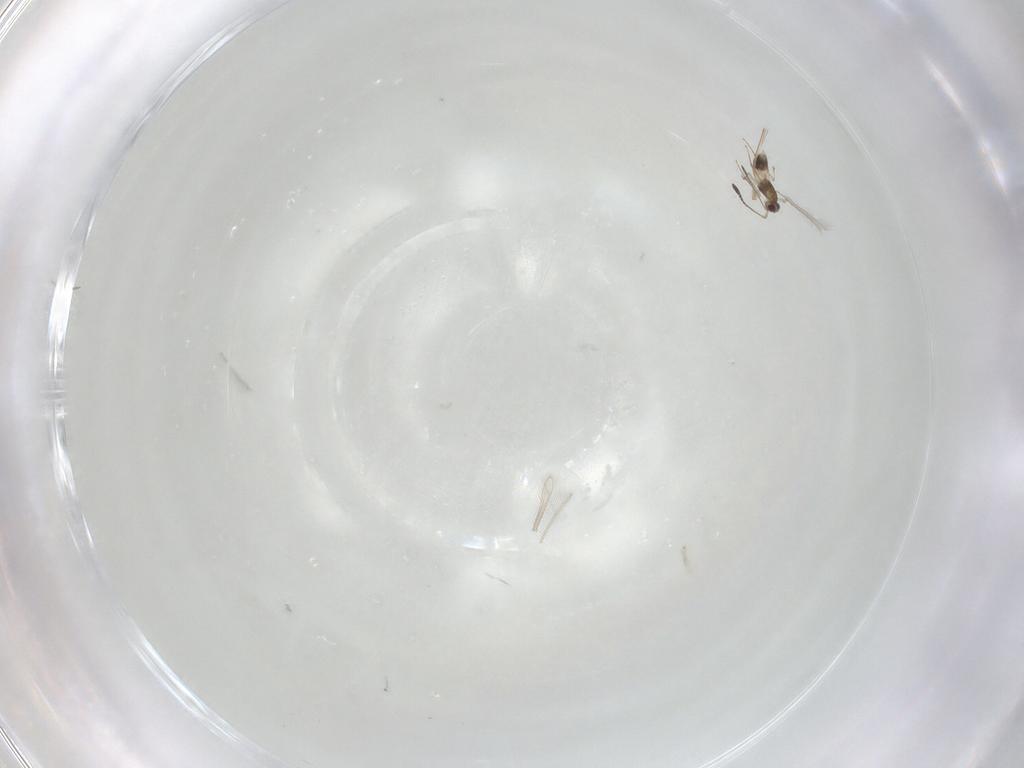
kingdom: Animalia
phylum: Arthropoda
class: Insecta
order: Hymenoptera
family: Mymaridae
